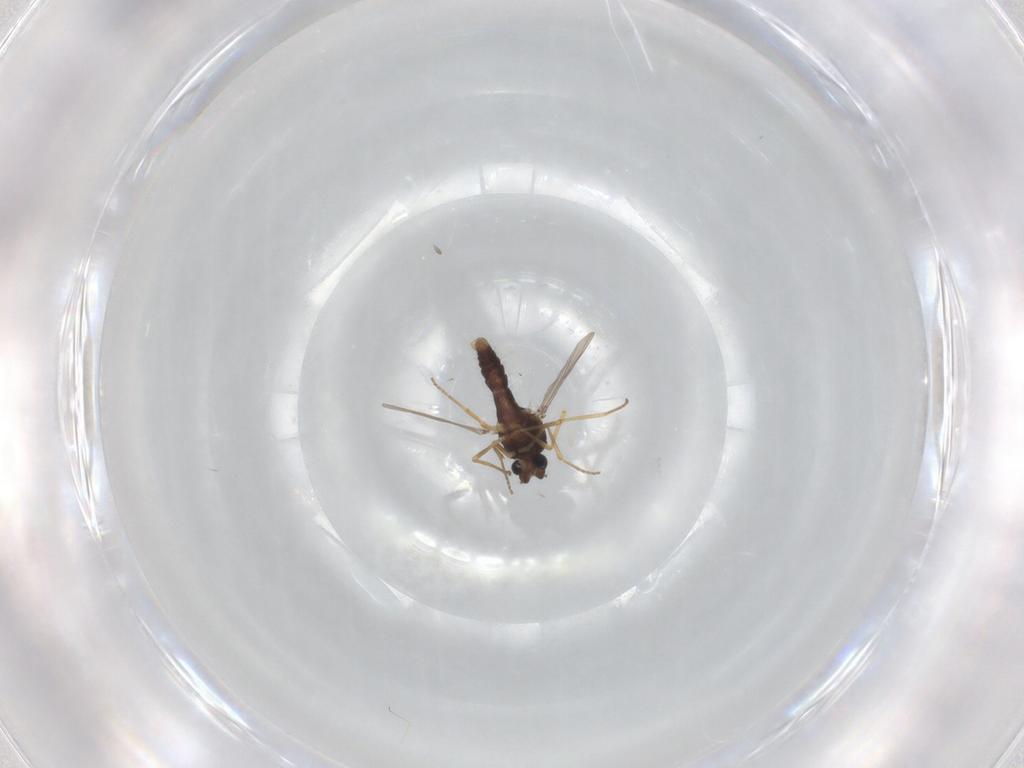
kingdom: Animalia
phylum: Arthropoda
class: Insecta
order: Diptera
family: Ceratopogonidae
